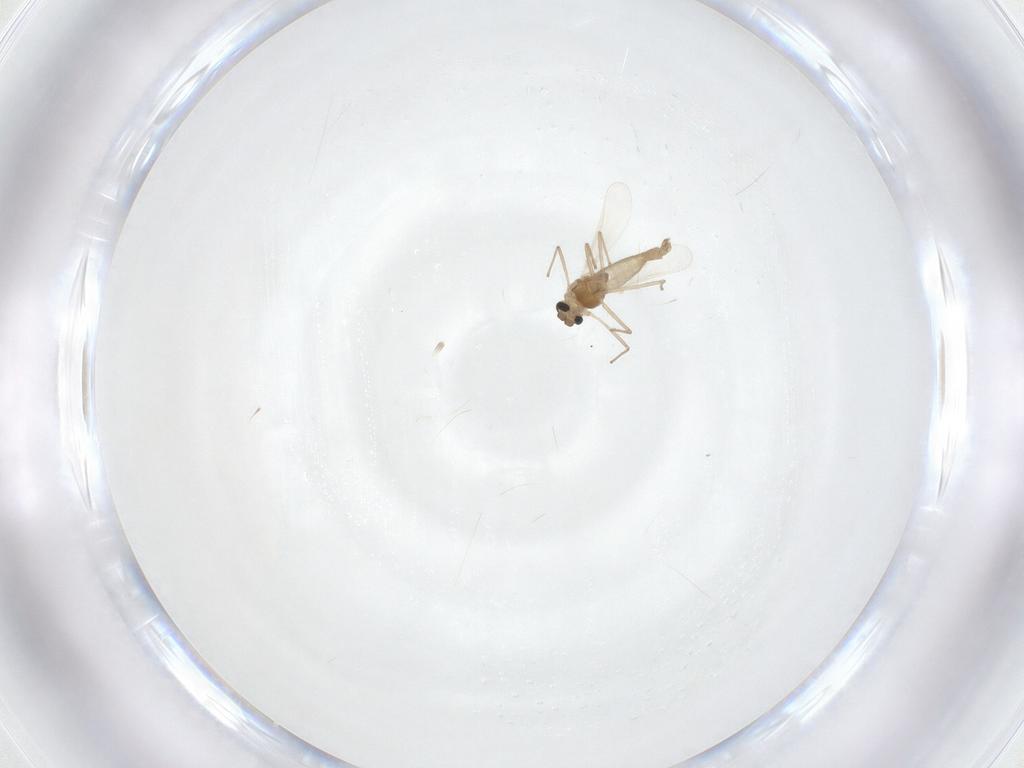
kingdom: Animalia
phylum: Arthropoda
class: Insecta
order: Diptera
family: Chironomidae
